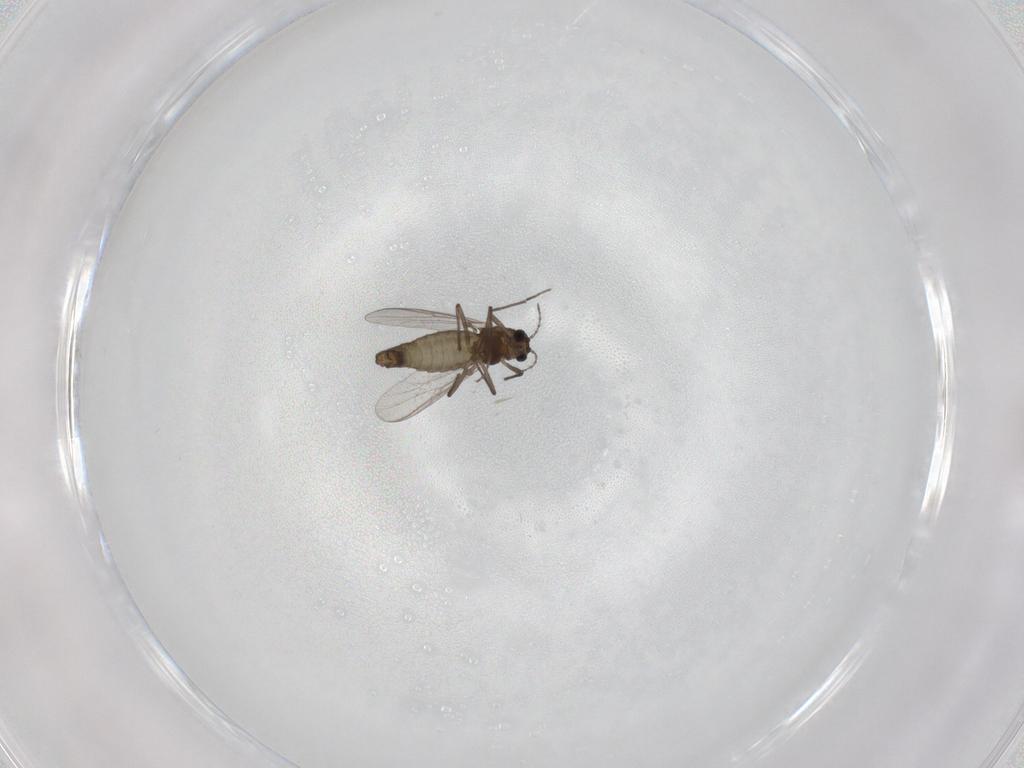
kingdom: Animalia
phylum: Arthropoda
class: Insecta
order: Diptera
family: Chironomidae
